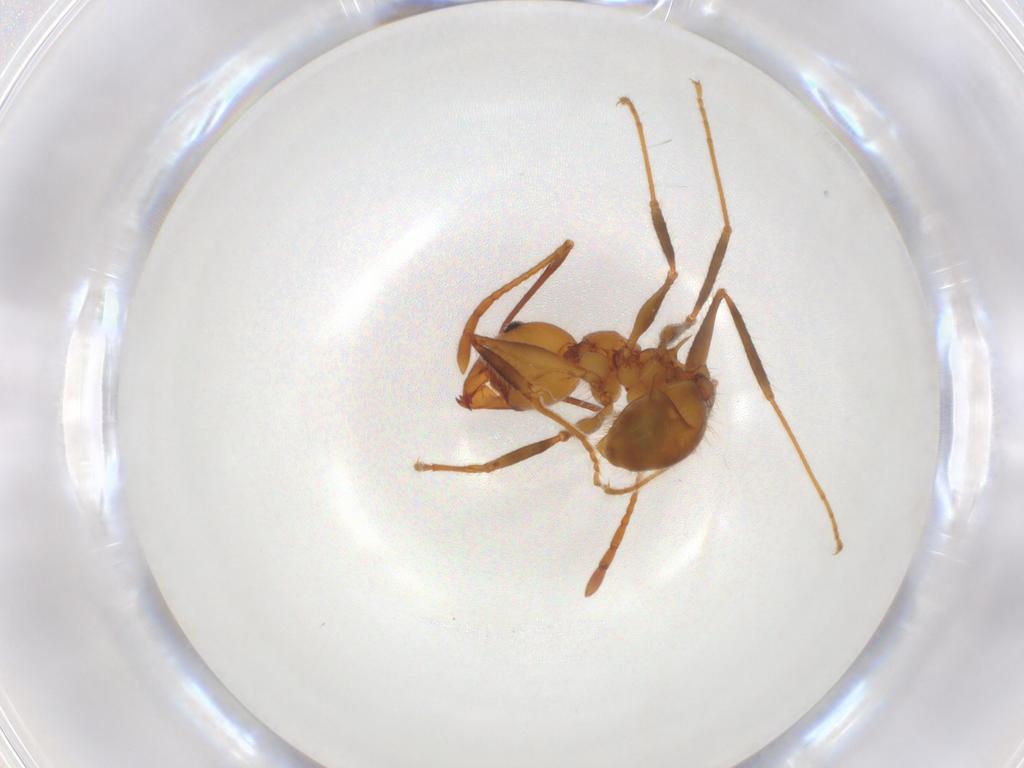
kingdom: Animalia
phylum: Arthropoda
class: Insecta
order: Hymenoptera
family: Formicidae
